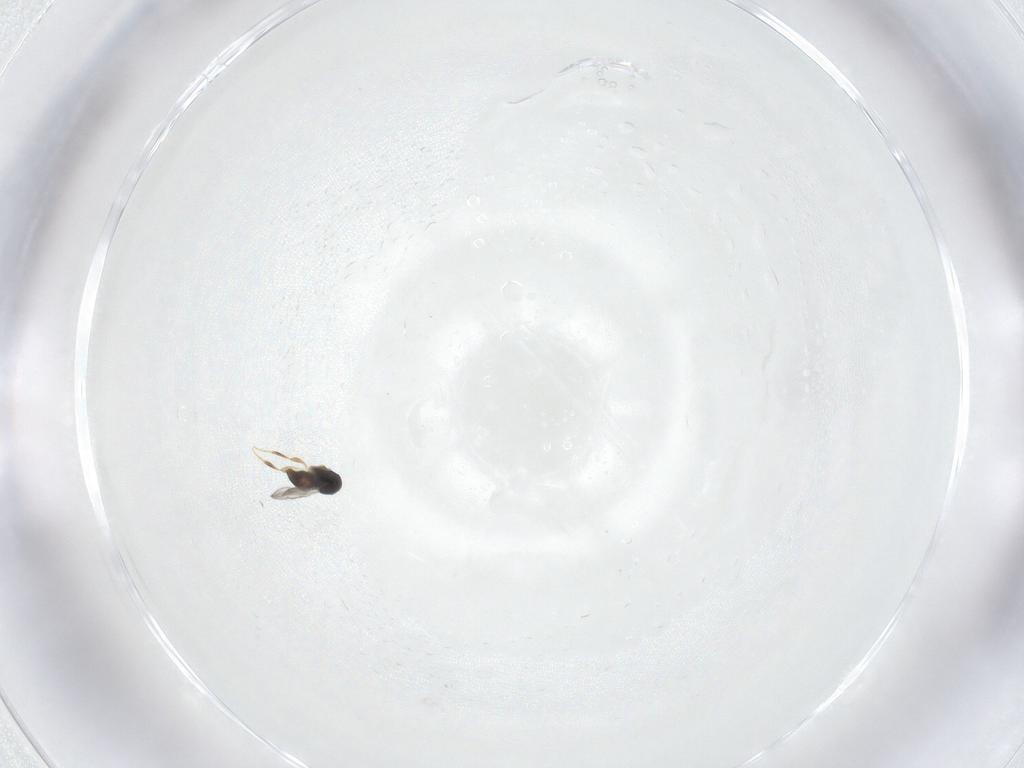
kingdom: Animalia
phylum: Arthropoda
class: Insecta
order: Hymenoptera
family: Ceraphronidae
